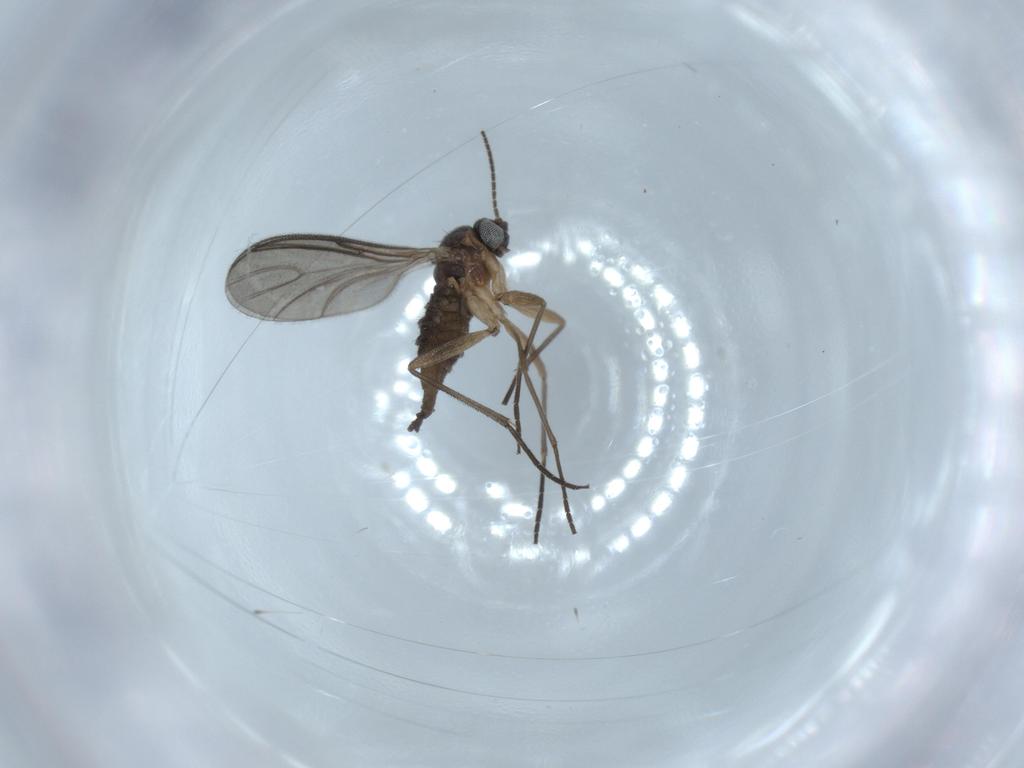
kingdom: Animalia
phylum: Arthropoda
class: Insecta
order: Diptera
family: Sciaridae
